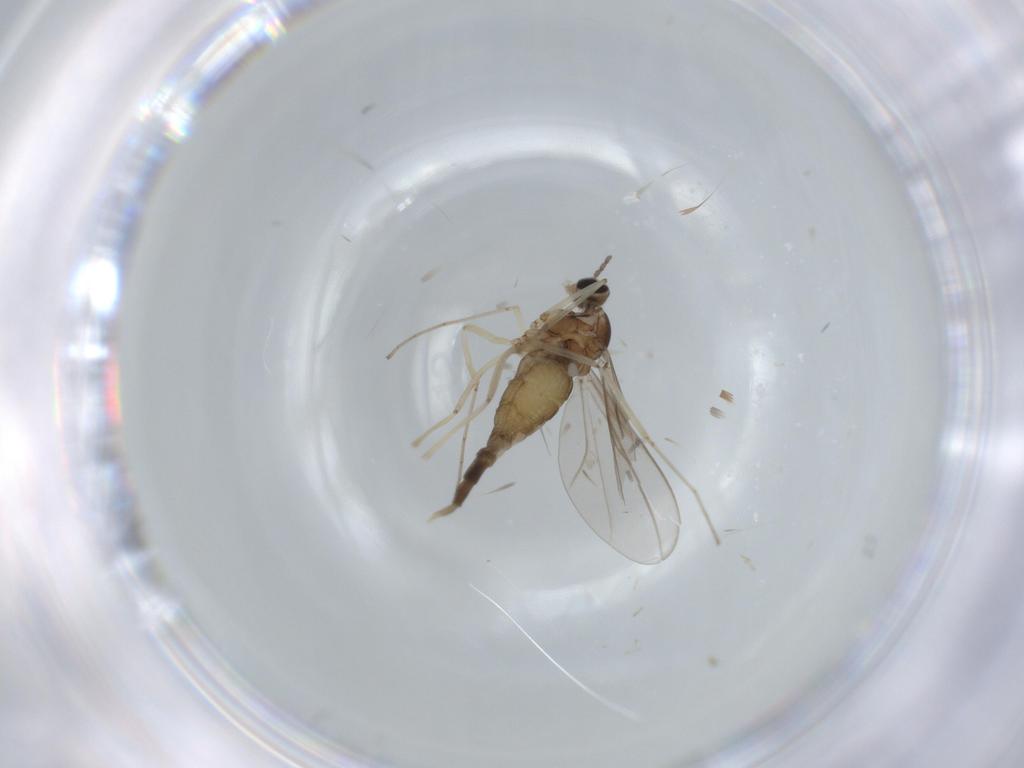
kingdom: Animalia
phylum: Arthropoda
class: Insecta
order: Diptera
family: Cecidomyiidae
